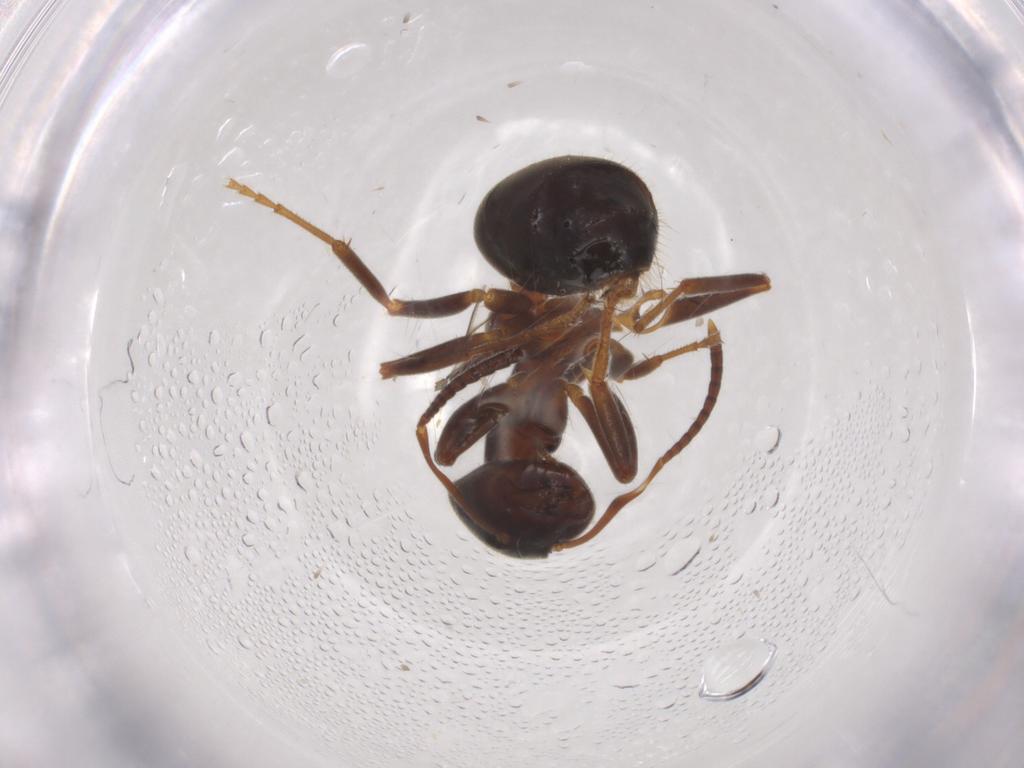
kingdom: Animalia
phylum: Arthropoda
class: Insecta
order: Hymenoptera
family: Formicidae
